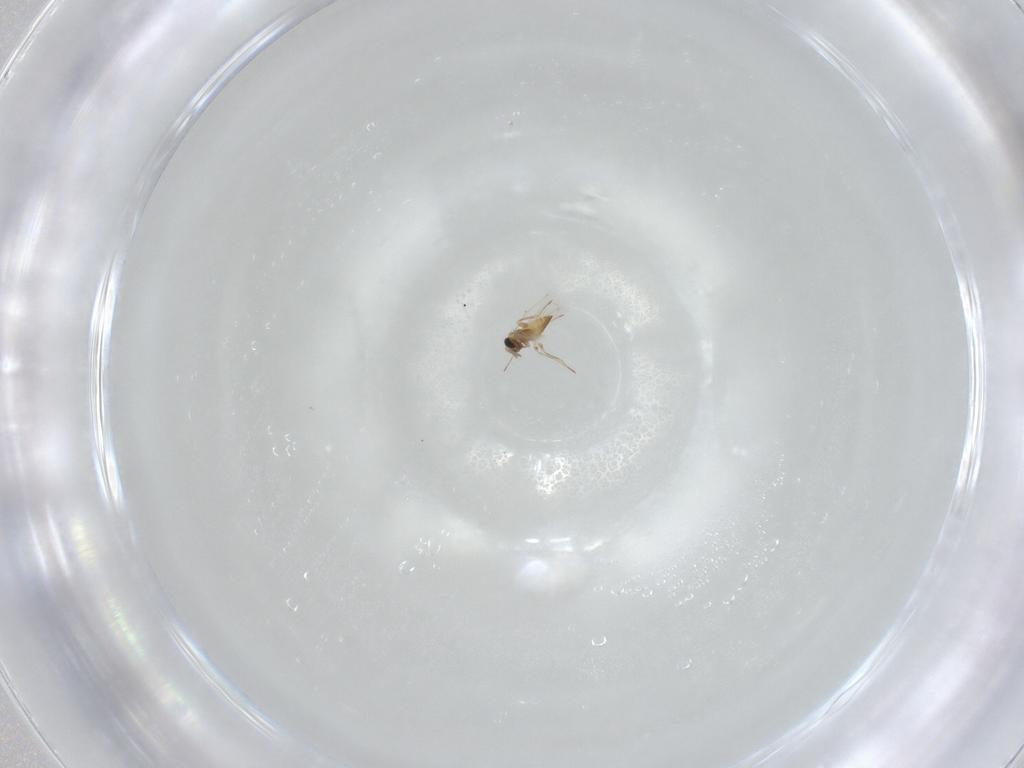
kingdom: Animalia
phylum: Arthropoda
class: Insecta
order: Hymenoptera
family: Trichogrammatidae
